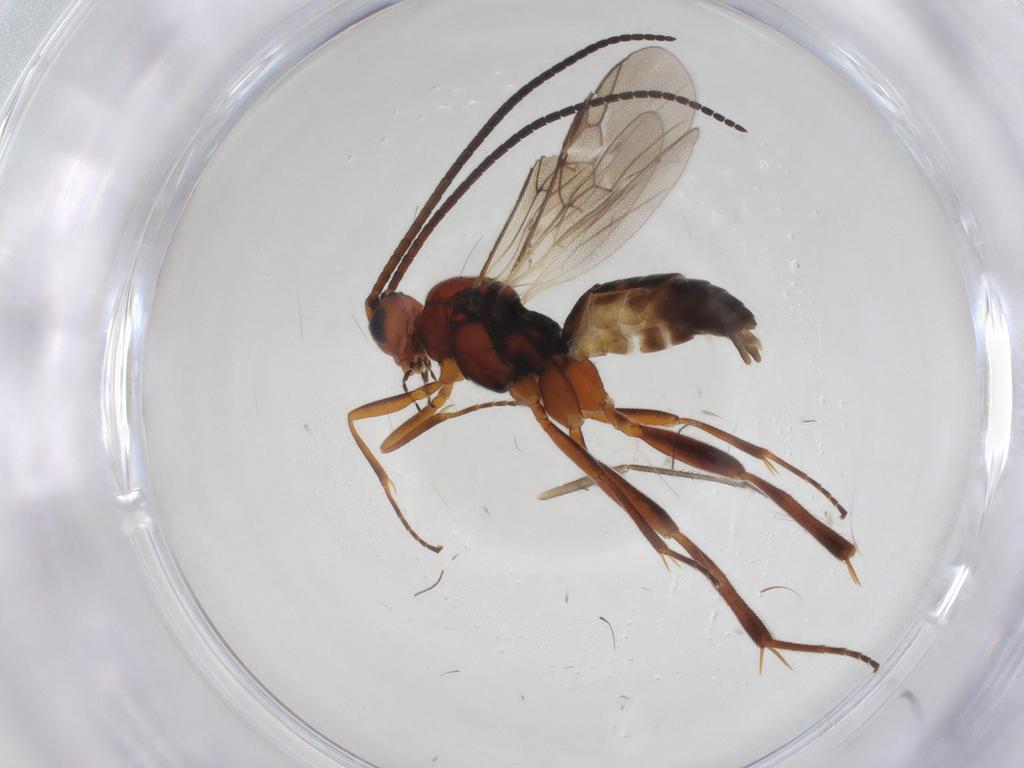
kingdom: Animalia
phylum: Arthropoda
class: Insecta
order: Hymenoptera
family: Braconidae
